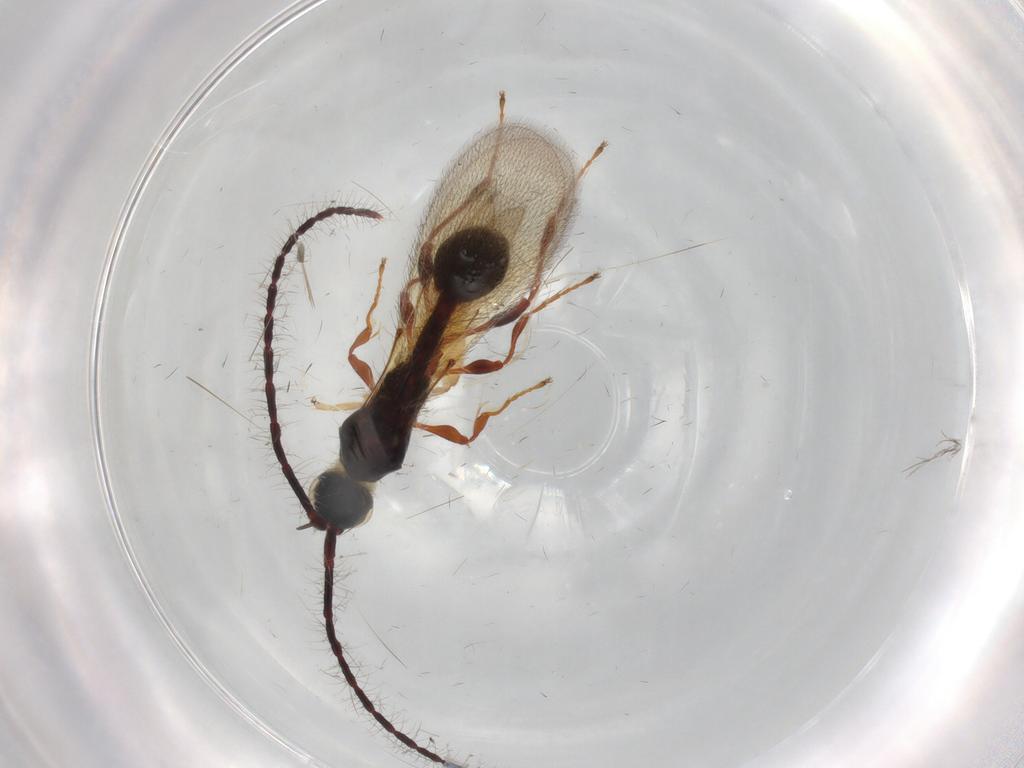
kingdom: Animalia
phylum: Arthropoda
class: Insecta
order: Hymenoptera
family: Diapriidae
